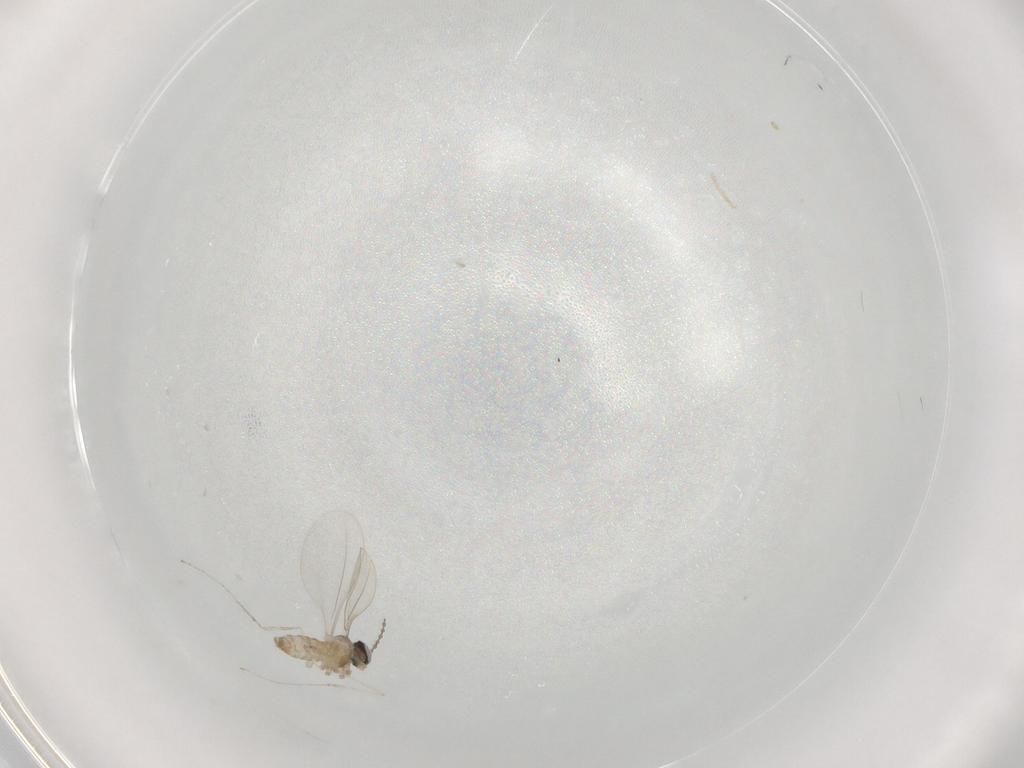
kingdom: Animalia
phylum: Arthropoda
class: Insecta
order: Diptera
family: Cecidomyiidae
